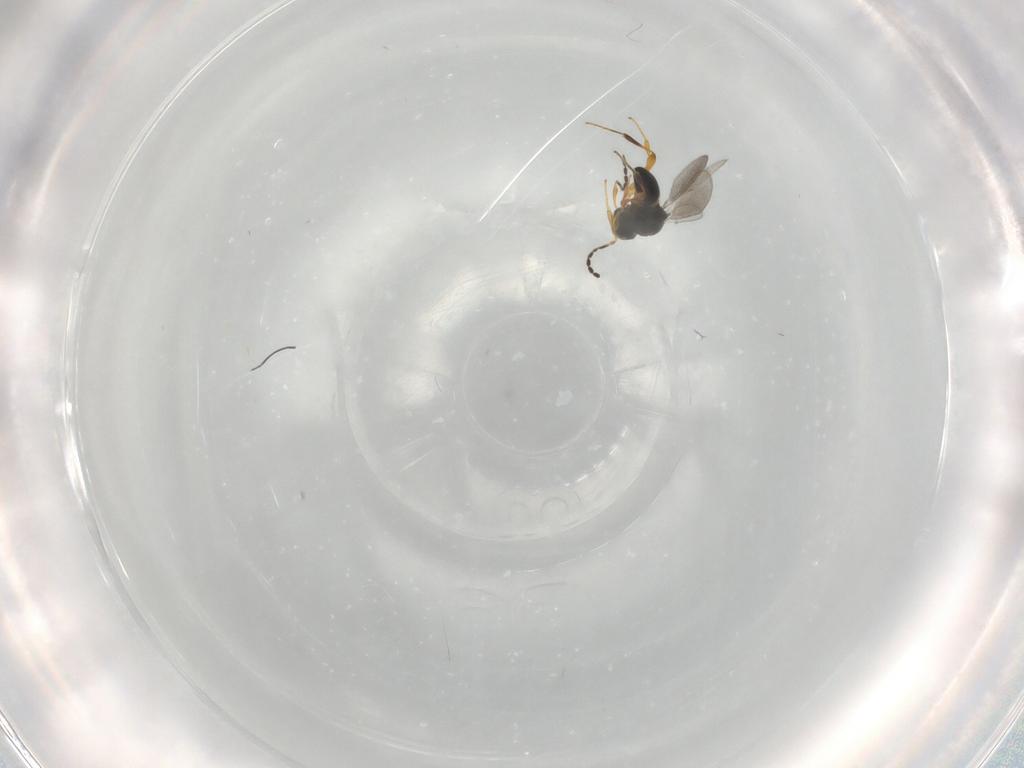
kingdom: Animalia
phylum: Arthropoda
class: Insecta
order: Hymenoptera
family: Platygastridae
